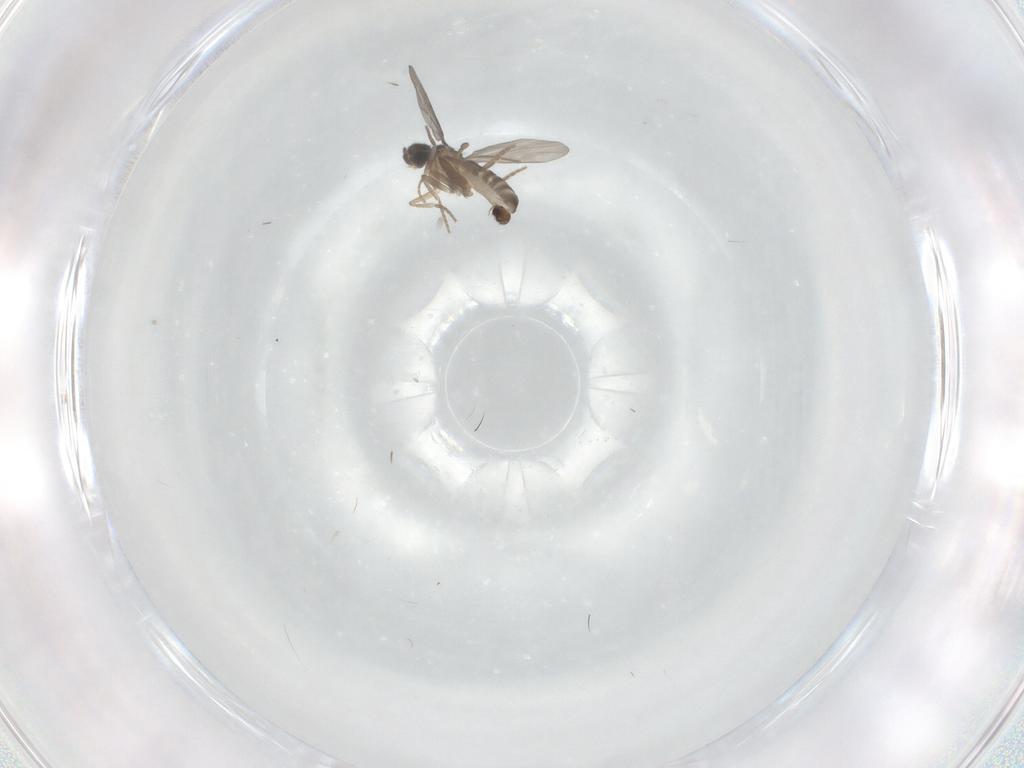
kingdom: Animalia
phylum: Arthropoda
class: Insecta
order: Diptera
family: Chironomidae
